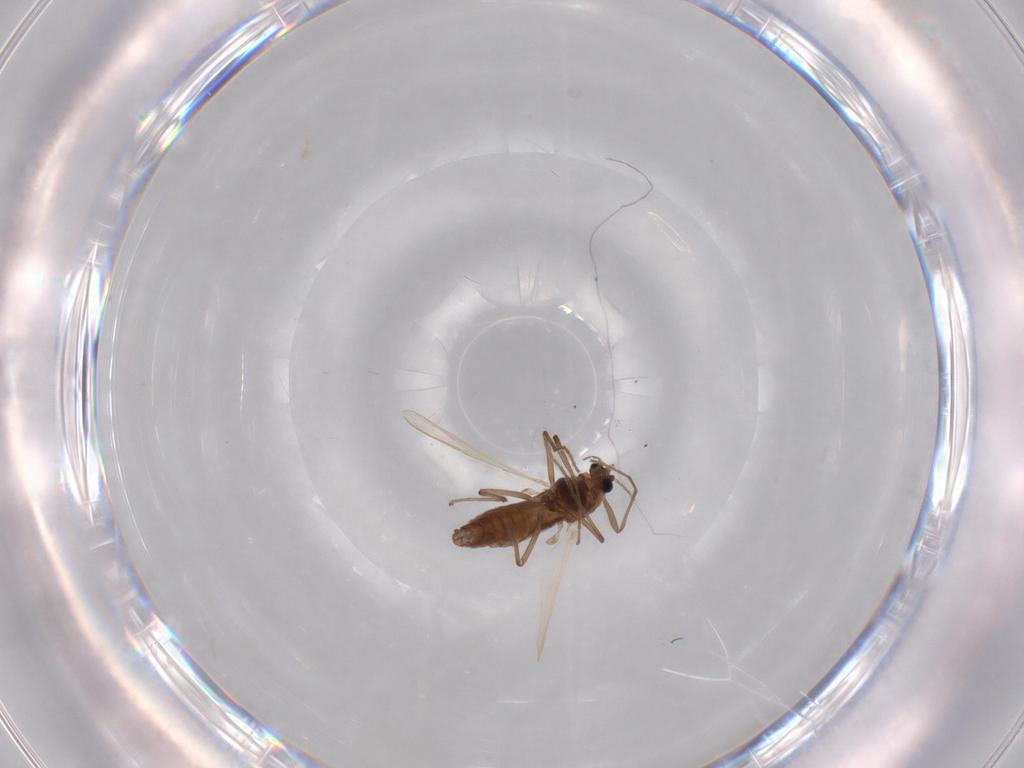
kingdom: Animalia
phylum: Arthropoda
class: Insecta
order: Diptera
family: Chironomidae
